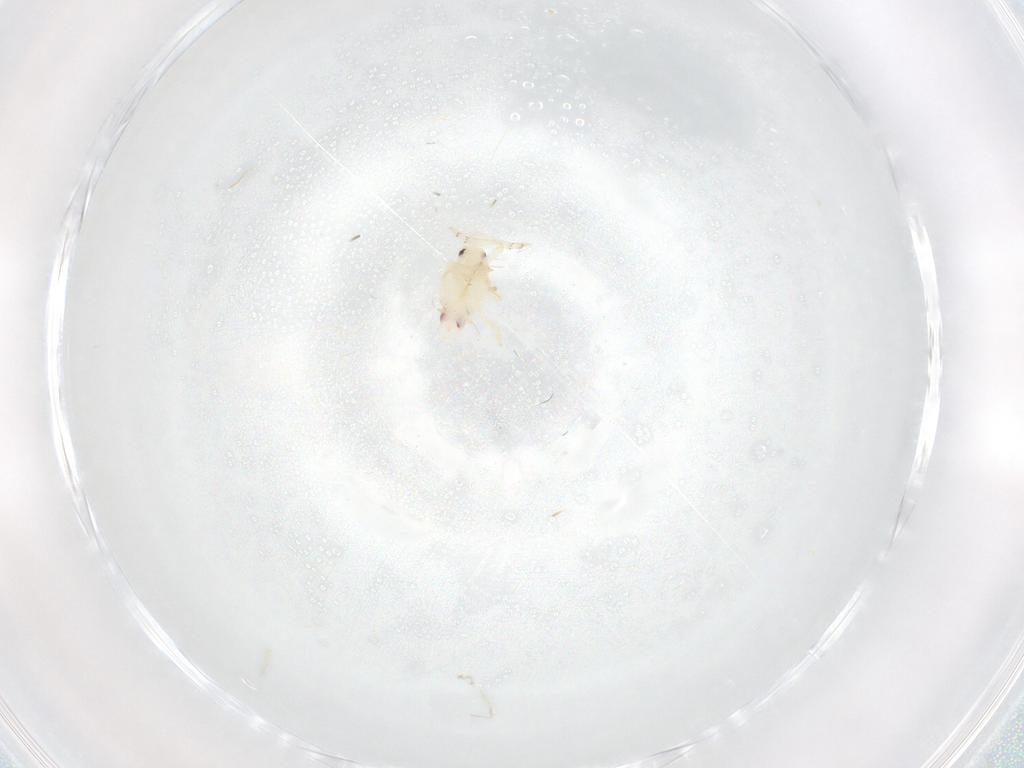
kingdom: Animalia
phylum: Arthropoda
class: Insecta
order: Hemiptera
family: Flatidae
